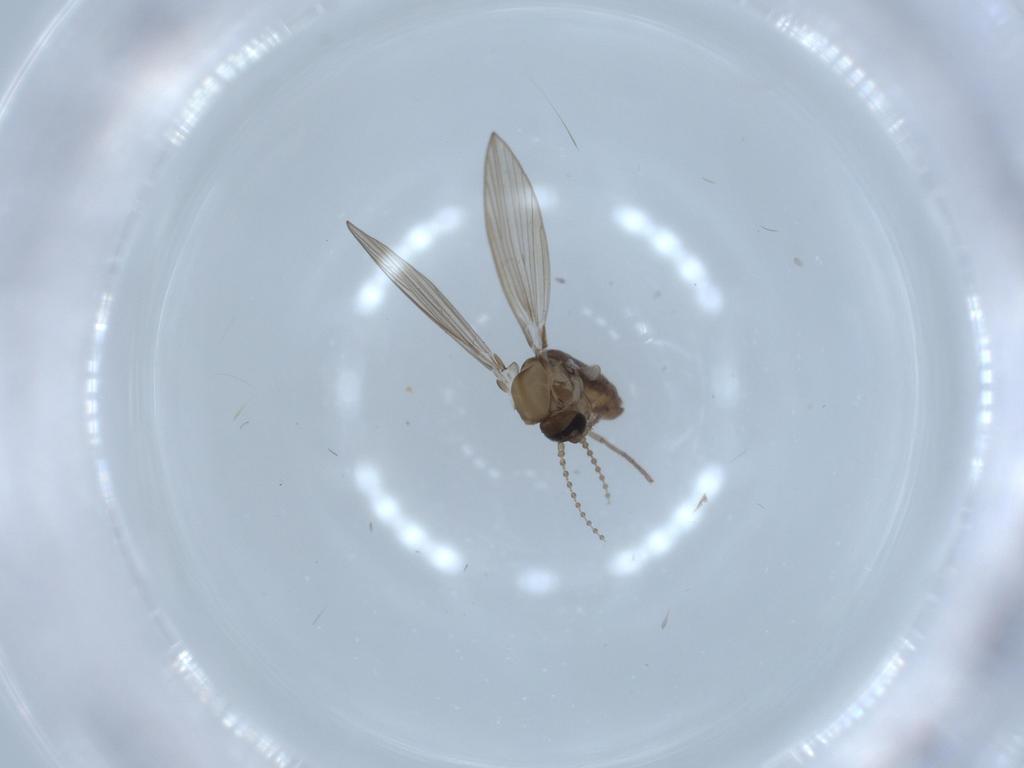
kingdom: Animalia
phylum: Arthropoda
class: Insecta
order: Diptera
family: Psychodidae
